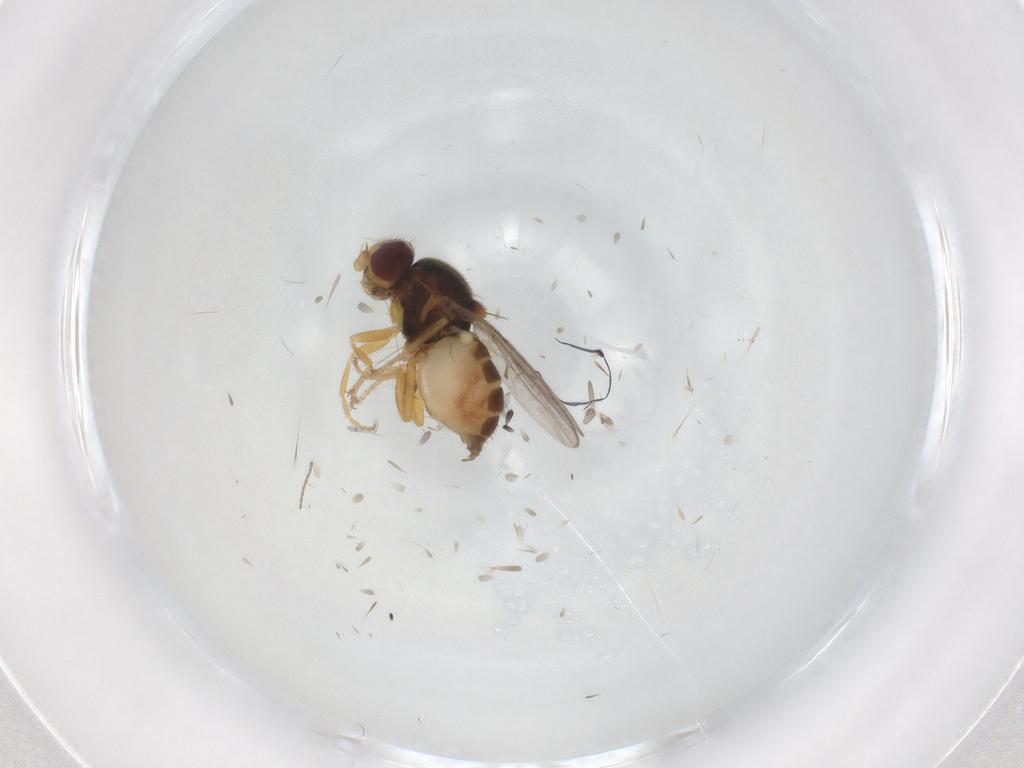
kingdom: Animalia
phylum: Arthropoda
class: Insecta
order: Diptera
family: Chloropidae
